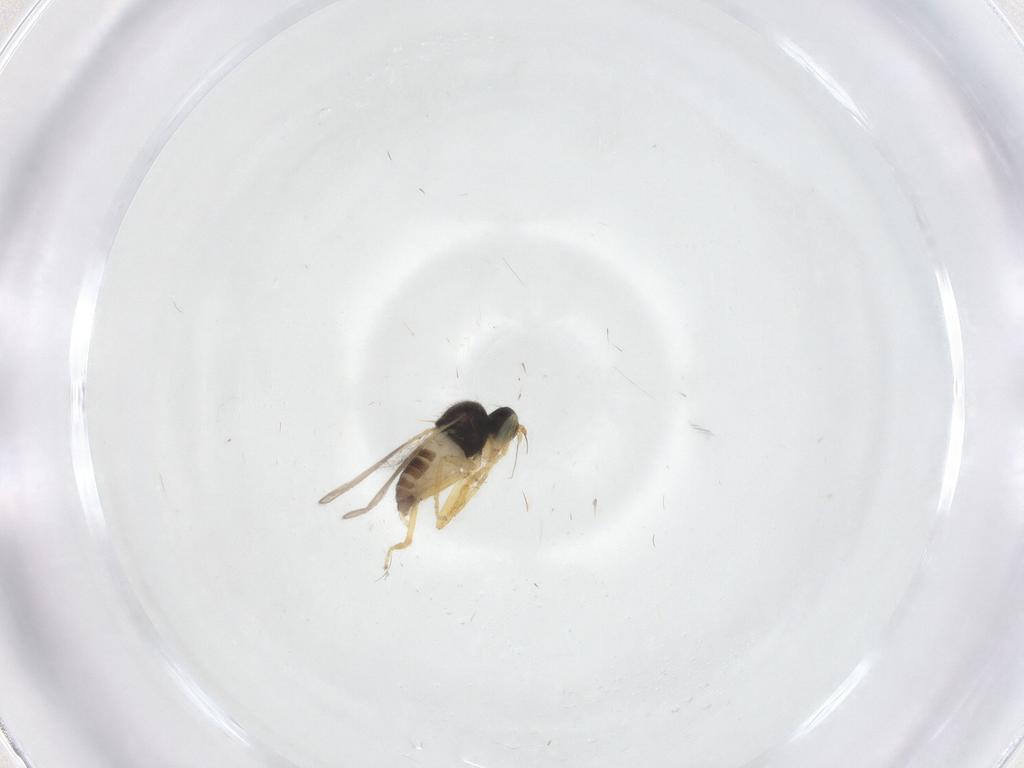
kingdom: Animalia
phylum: Arthropoda
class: Insecta
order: Diptera
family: Hybotidae
